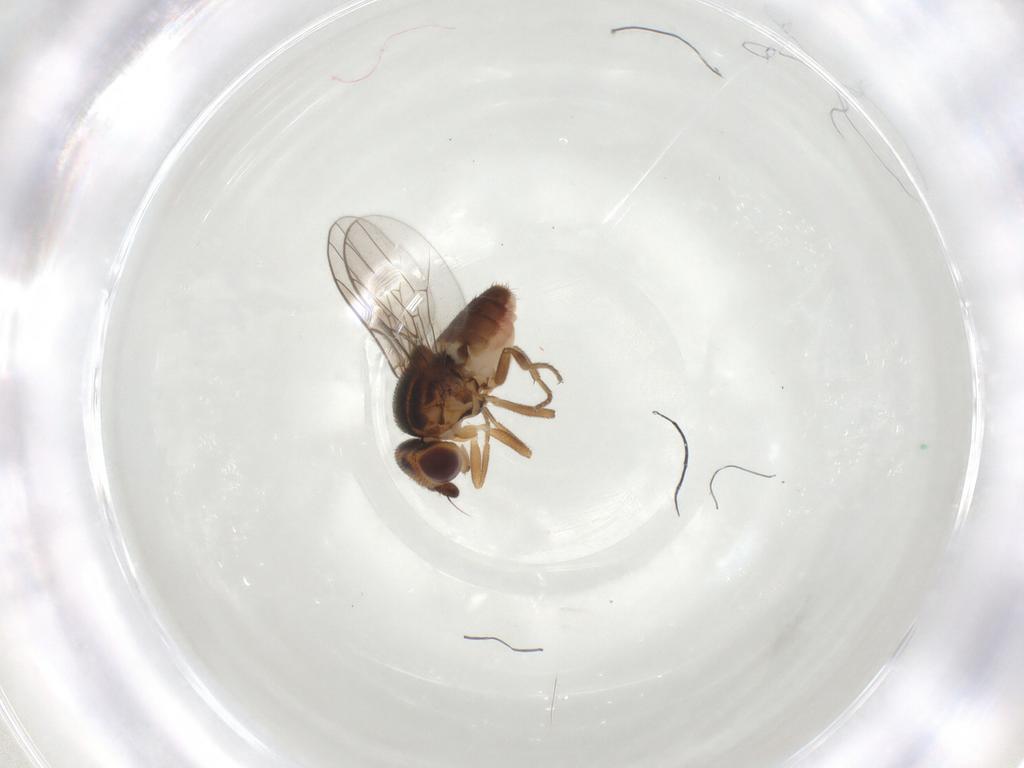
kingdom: Animalia
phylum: Arthropoda
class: Insecta
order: Diptera
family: Chloropidae
